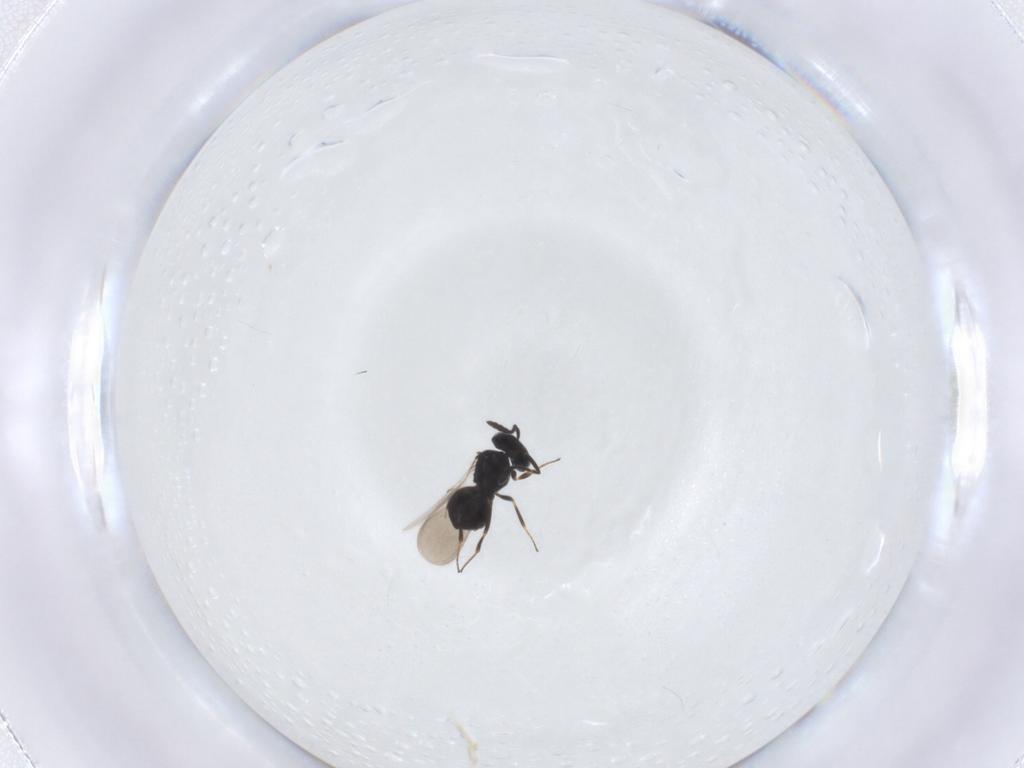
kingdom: Animalia
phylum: Arthropoda
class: Insecta
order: Hymenoptera
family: Scelionidae
